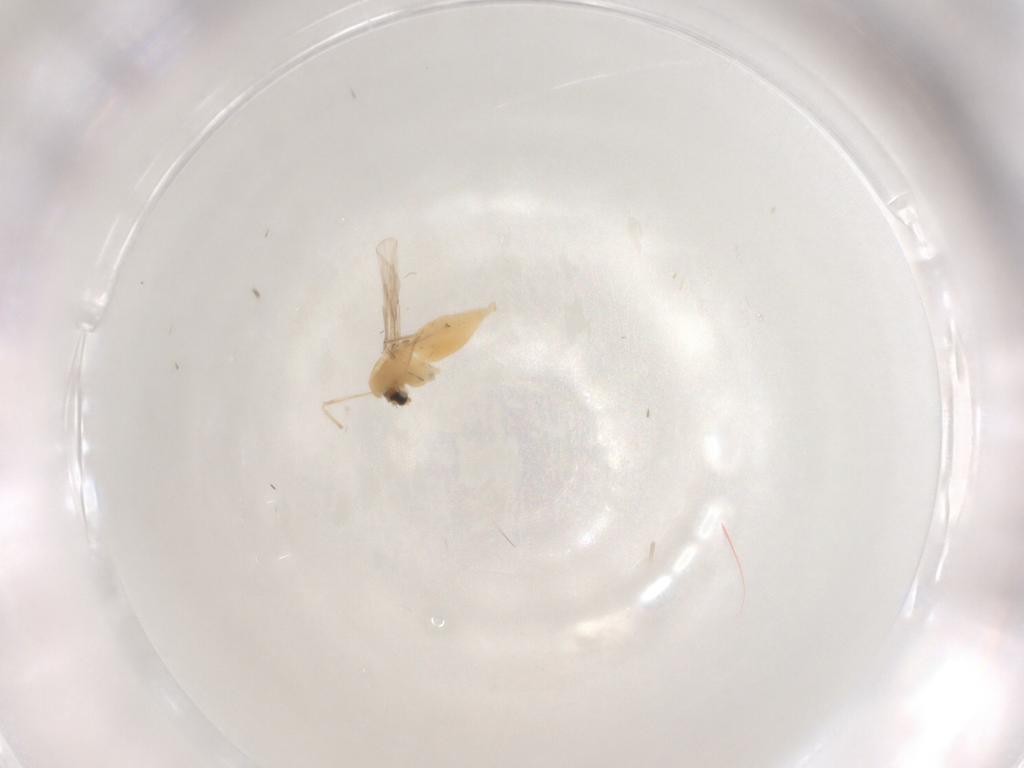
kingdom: Animalia
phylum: Arthropoda
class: Insecta
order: Diptera
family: Chironomidae
